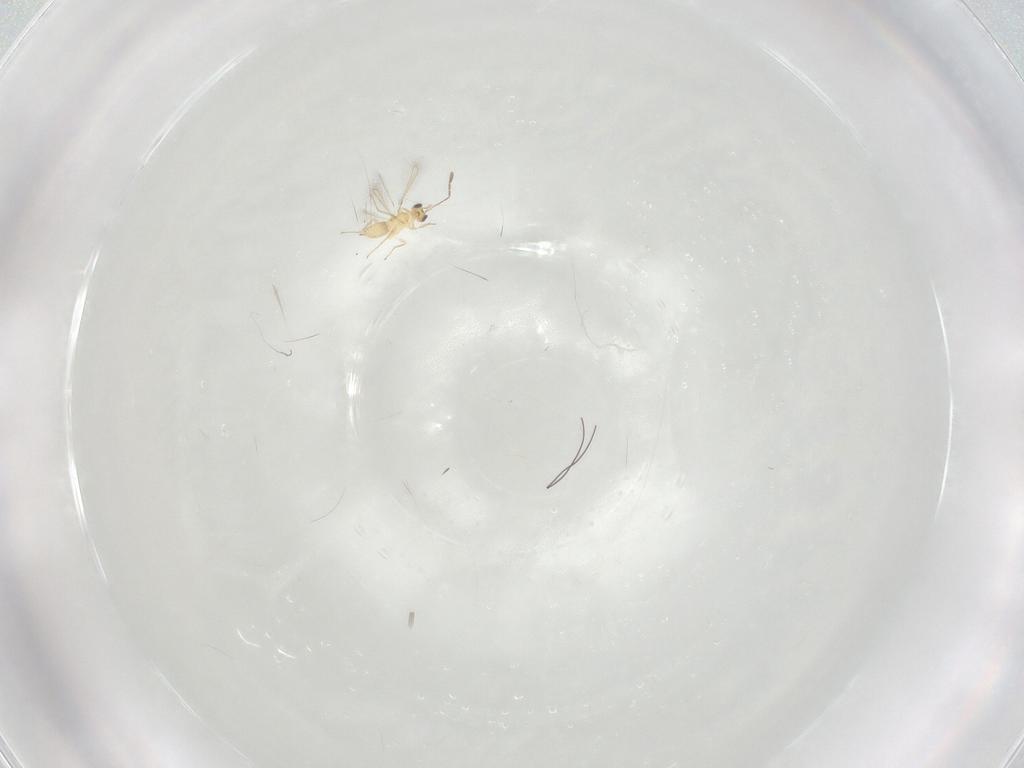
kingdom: Animalia
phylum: Arthropoda
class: Insecta
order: Hymenoptera
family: Mymaridae
